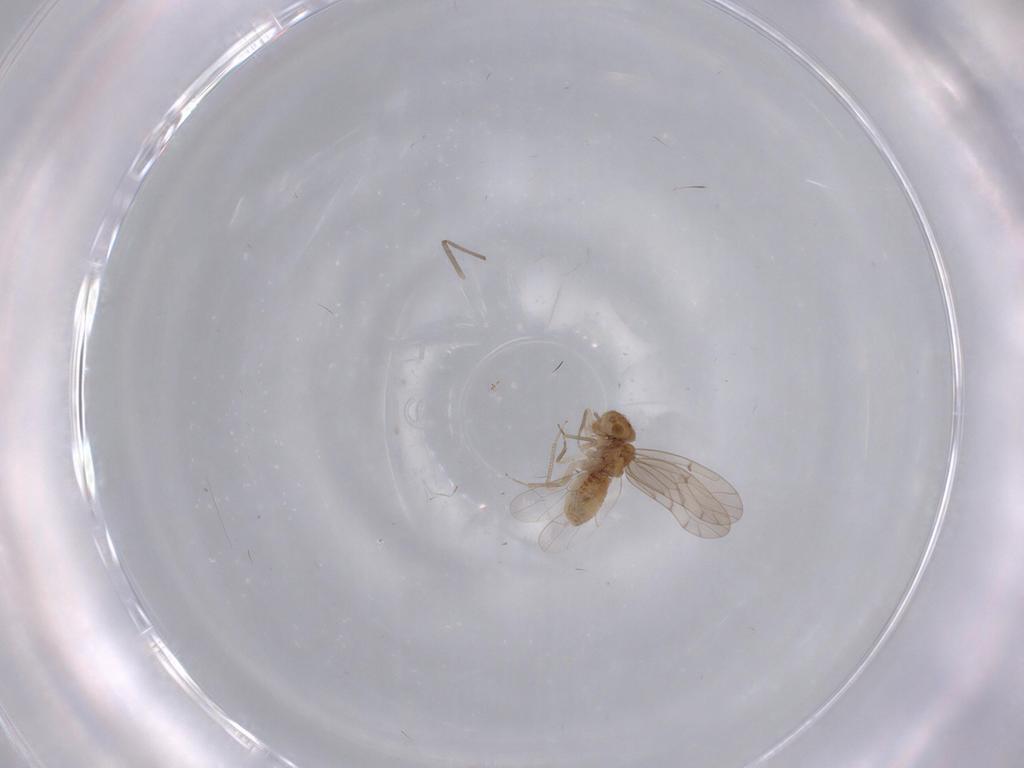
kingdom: Animalia
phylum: Arthropoda
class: Insecta
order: Psocodea
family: Ectopsocidae
